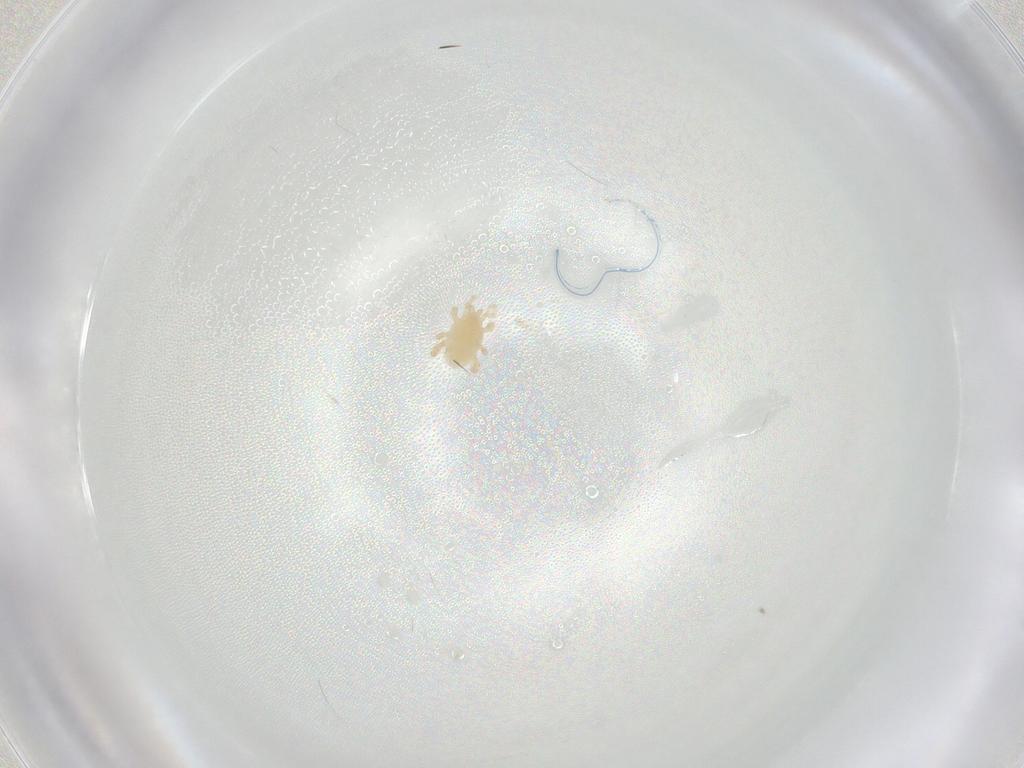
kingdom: Animalia
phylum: Arthropoda
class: Arachnida
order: Mesostigmata
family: Parasitidae
